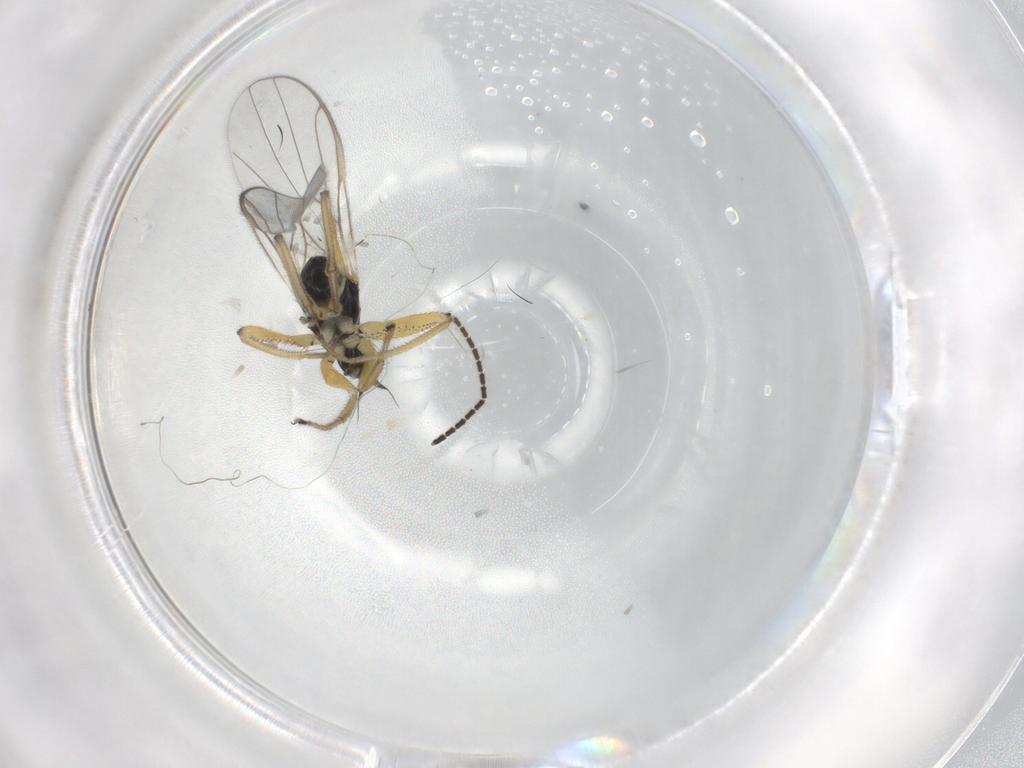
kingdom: Animalia
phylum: Arthropoda
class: Insecta
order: Diptera
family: Hybotidae
